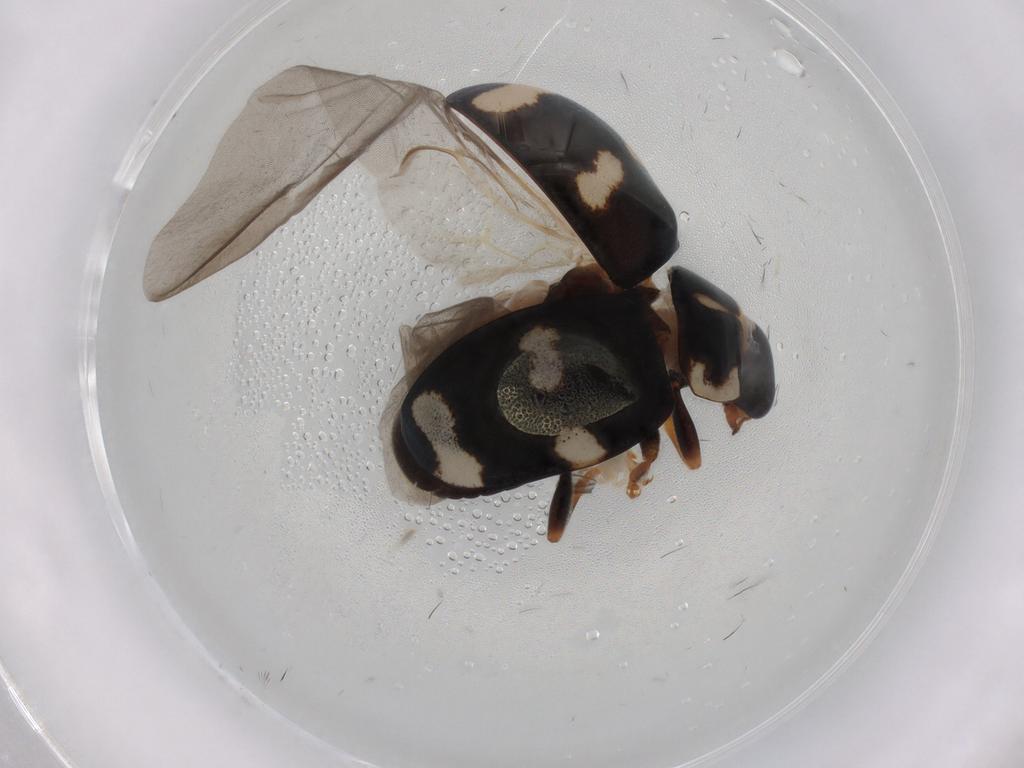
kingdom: Animalia
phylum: Arthropoda
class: Insecta
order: Coleoptera
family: Coccinellidae
